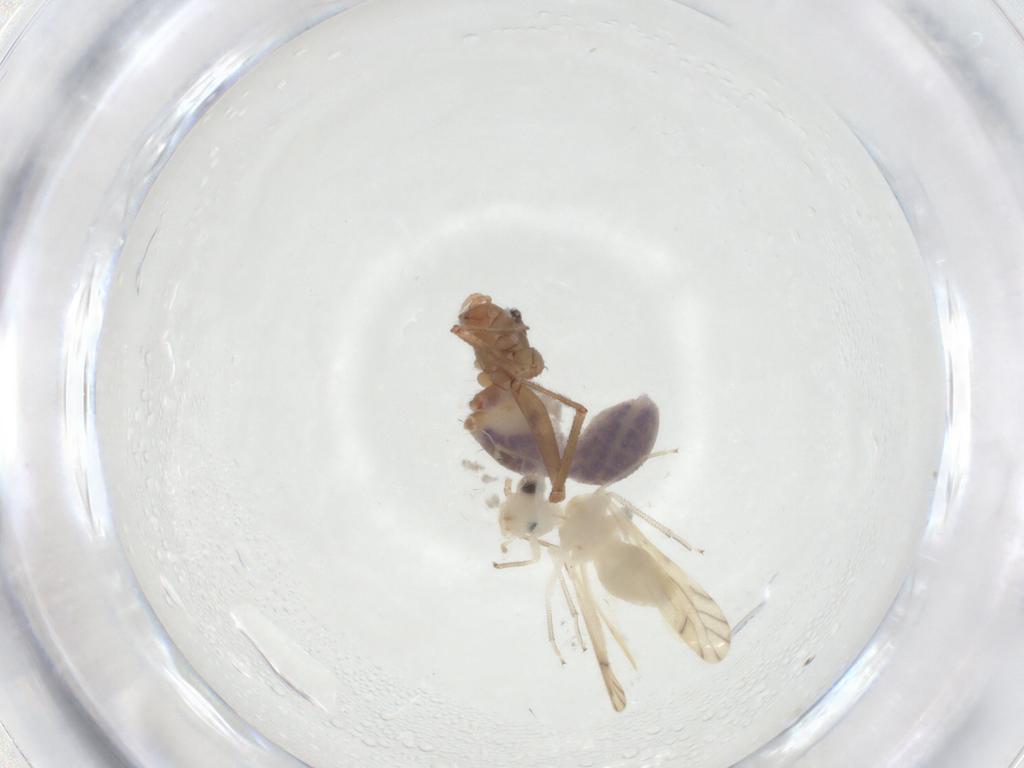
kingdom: Animalia
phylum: Arthropoda
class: Arachnida
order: Araneae
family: Pholcidae
